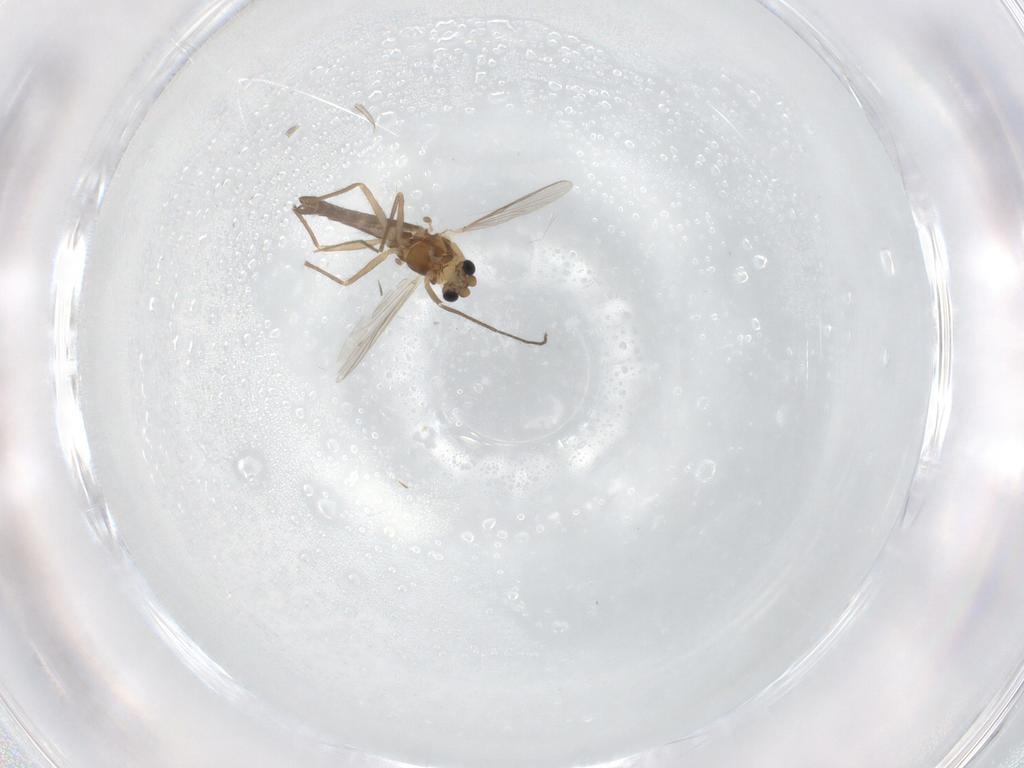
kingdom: Animalia
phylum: Arthropoda
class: Insecta
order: Diptera
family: Chironomidae
